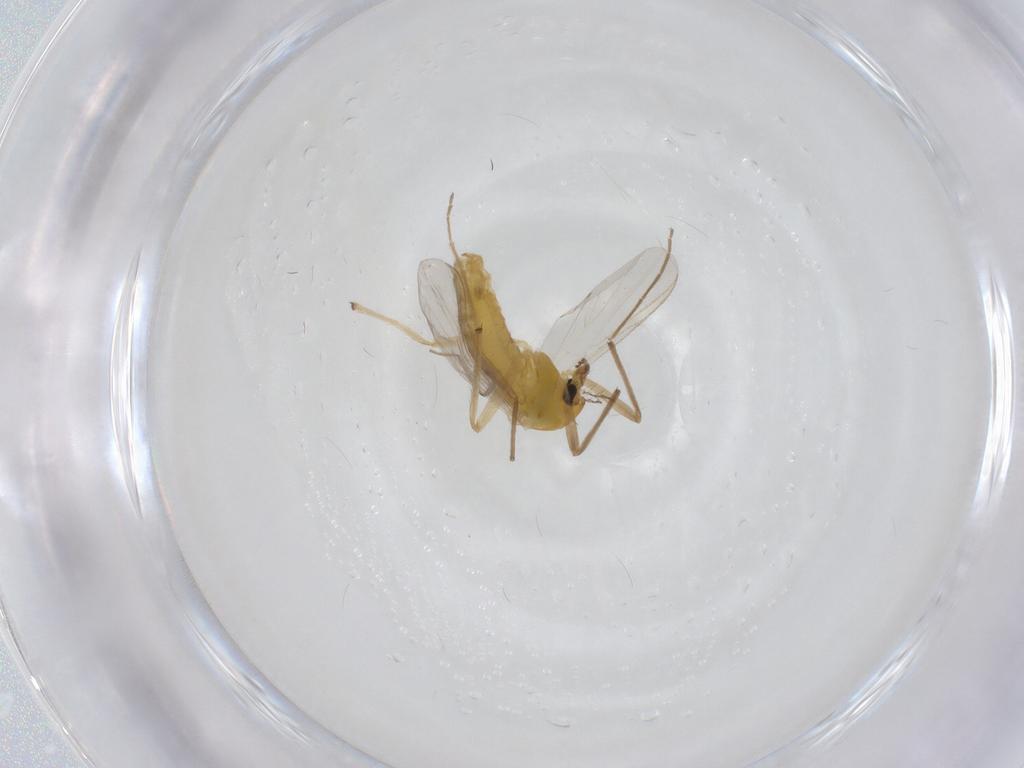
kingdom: Animalia
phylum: Arthropoda
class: Insecta
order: Diptera
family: Chironomidae
